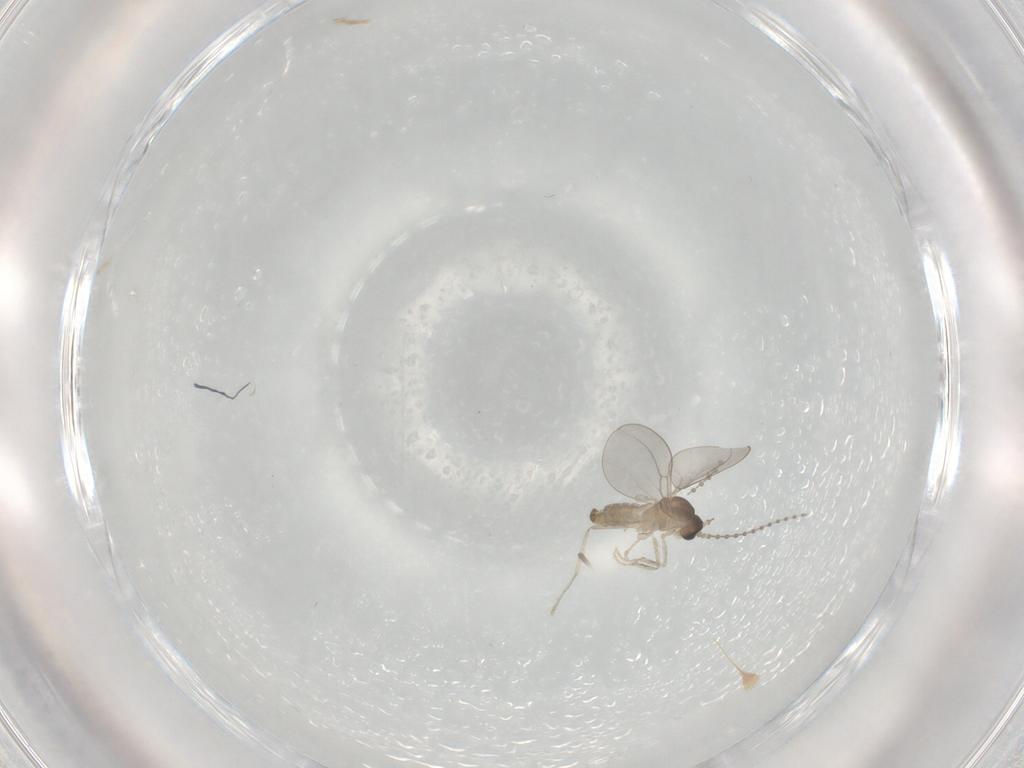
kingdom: Animalia
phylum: Arthropoda
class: Insecta
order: Diptera
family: Cecidomyiidae
